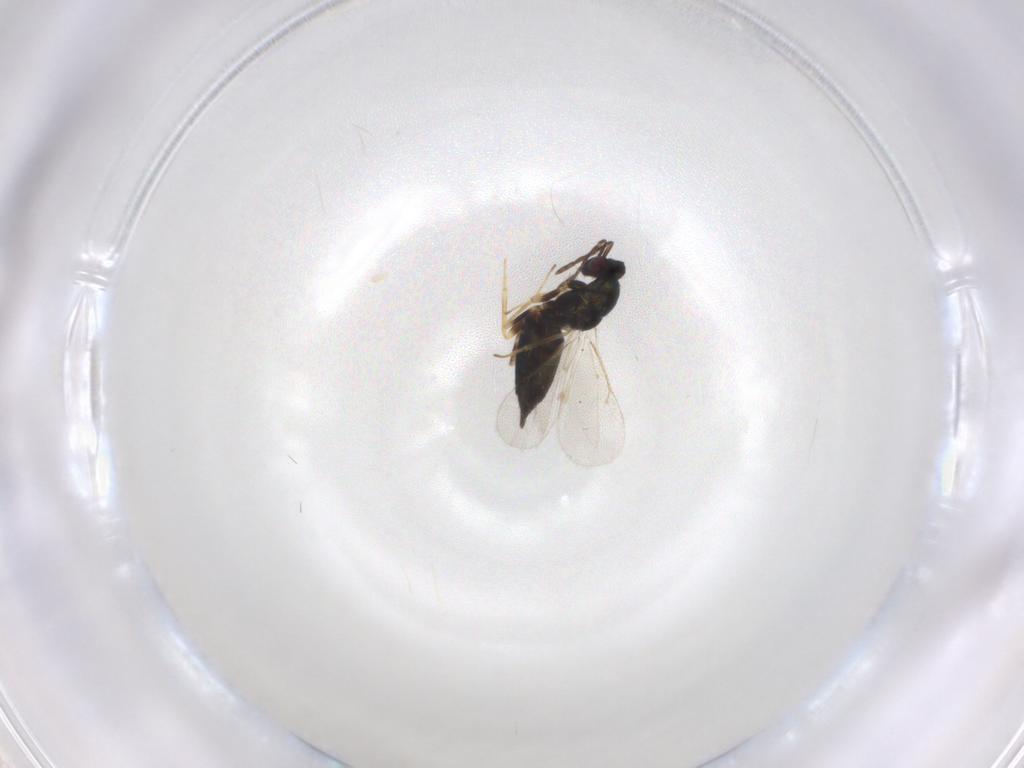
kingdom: Animalia
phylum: Arthropoda
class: Insecta
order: Hymenoptera
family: Eulophidae
